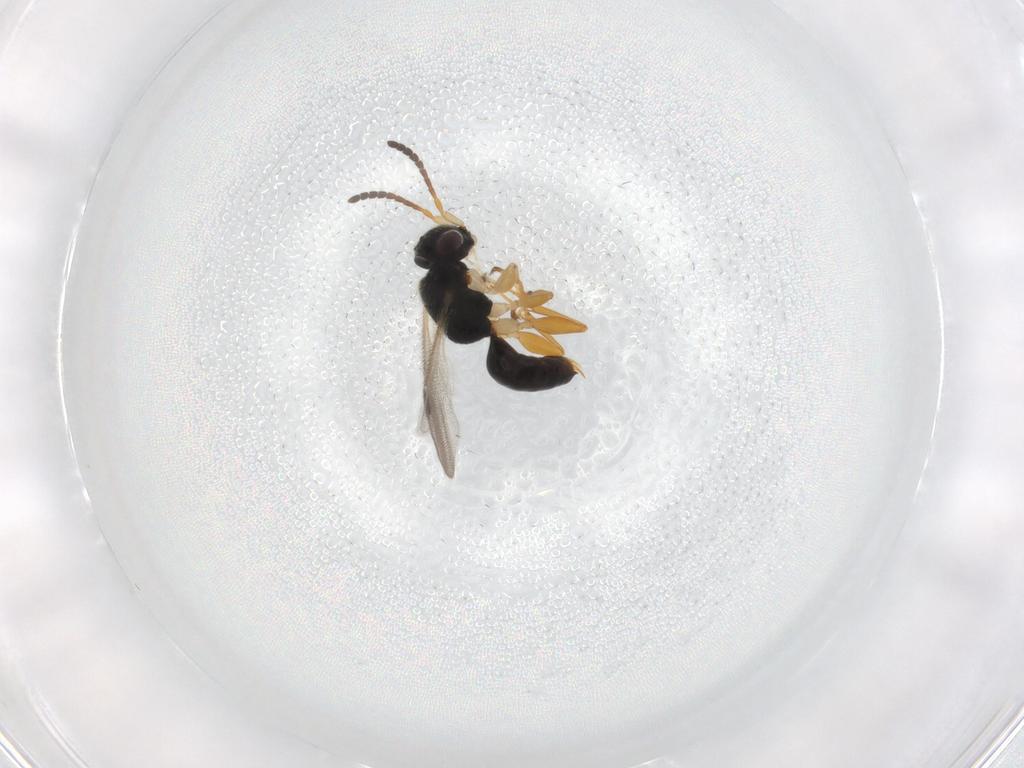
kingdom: Animalia
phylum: Arthropoda
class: Insecta
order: Hymenoptera
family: Dryinidae
